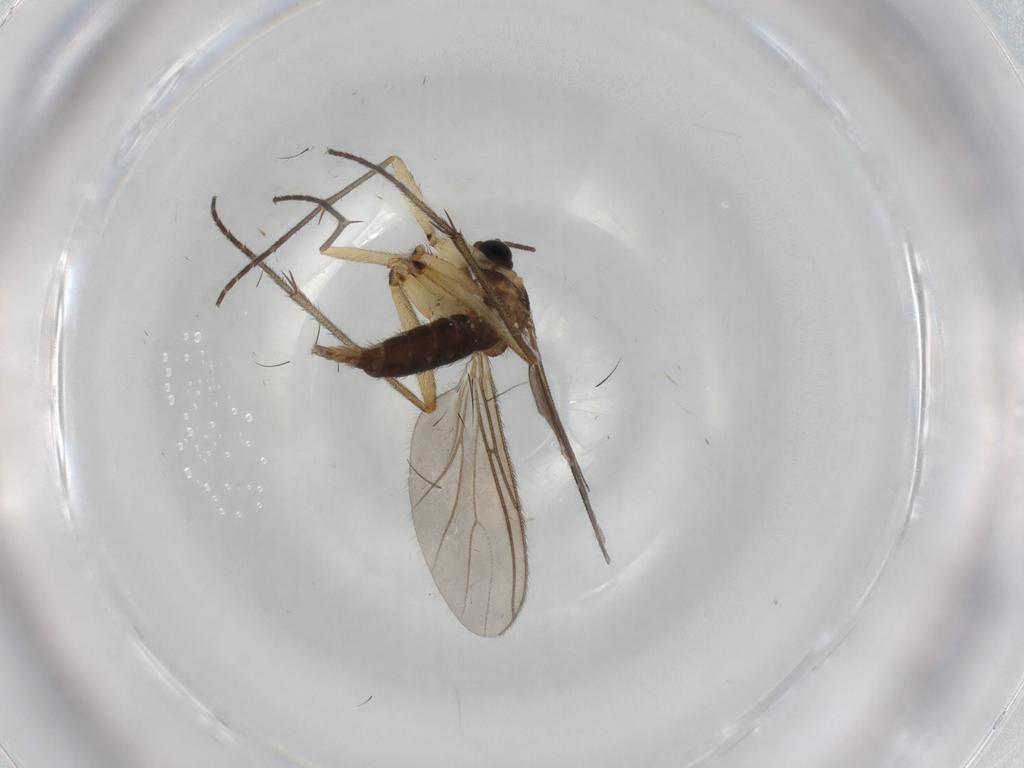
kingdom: Animalia
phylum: Arthropoda
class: Insecta
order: Diptera
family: Sciaridae
